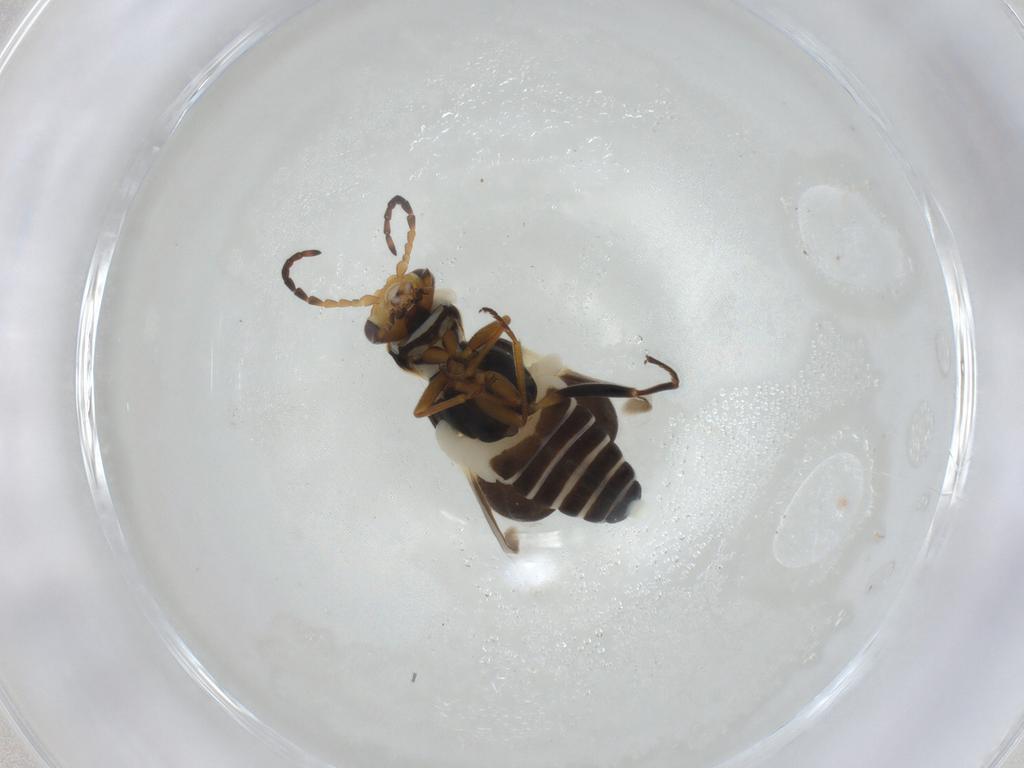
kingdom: Animalia
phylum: Arthropoda
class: Insecta
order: Coleoptera
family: Melyridae
